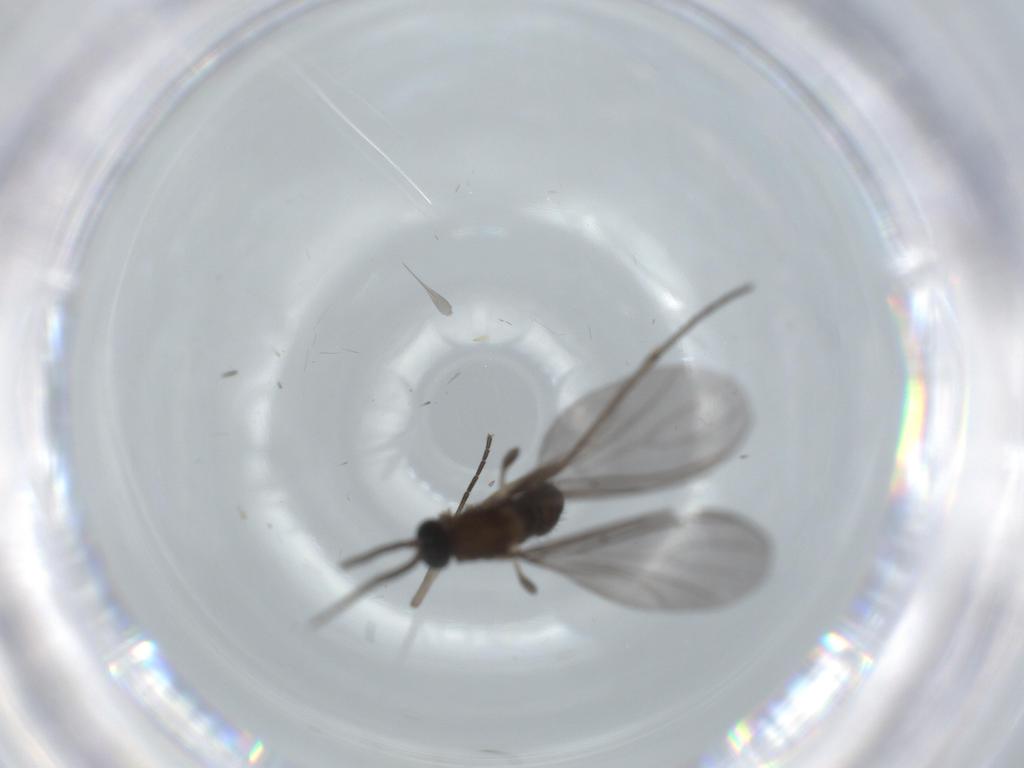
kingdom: Animalia
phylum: Arthropoda
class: Insecta
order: Diptera
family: Sciaridae
